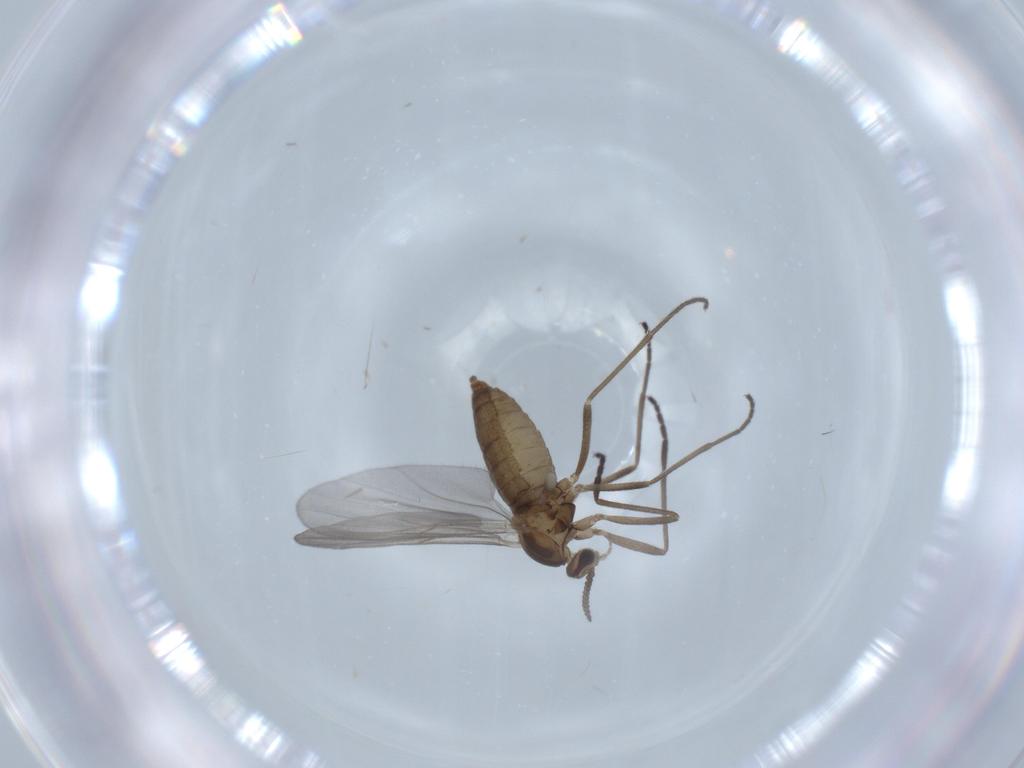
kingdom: Animalia
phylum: Arthropoda
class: Insecta
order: Diptera
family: Cecidomyiidae
